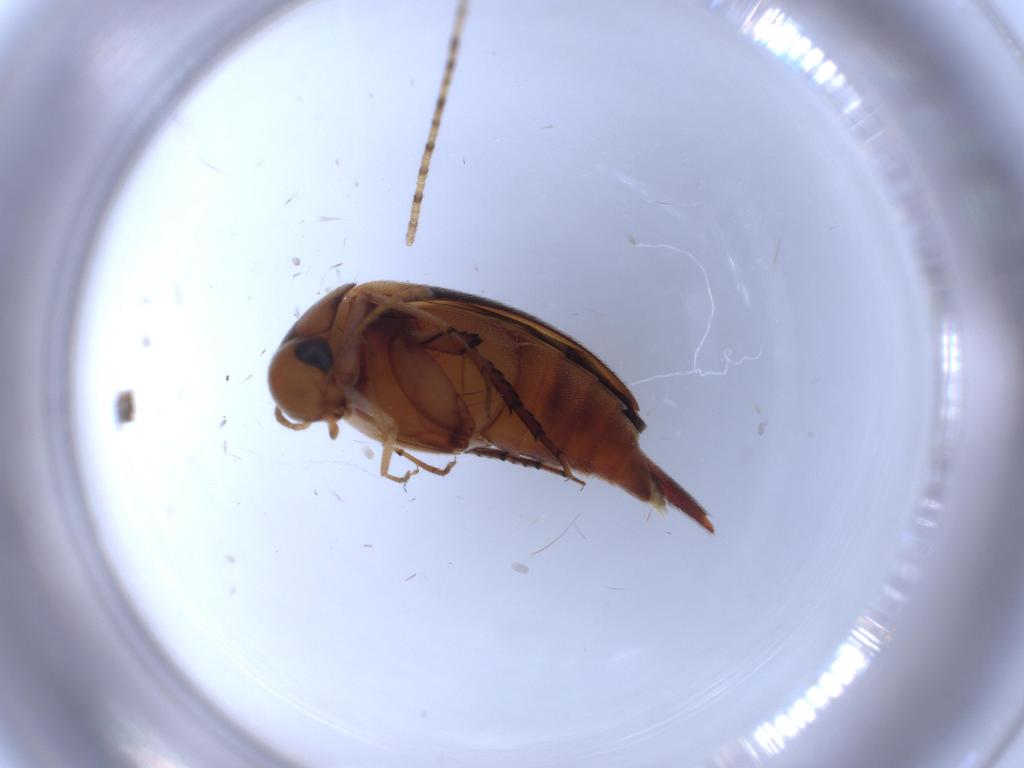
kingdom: Animalia
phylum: Arthropoda
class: Insecta
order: Coleoptera
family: Mordellidae
